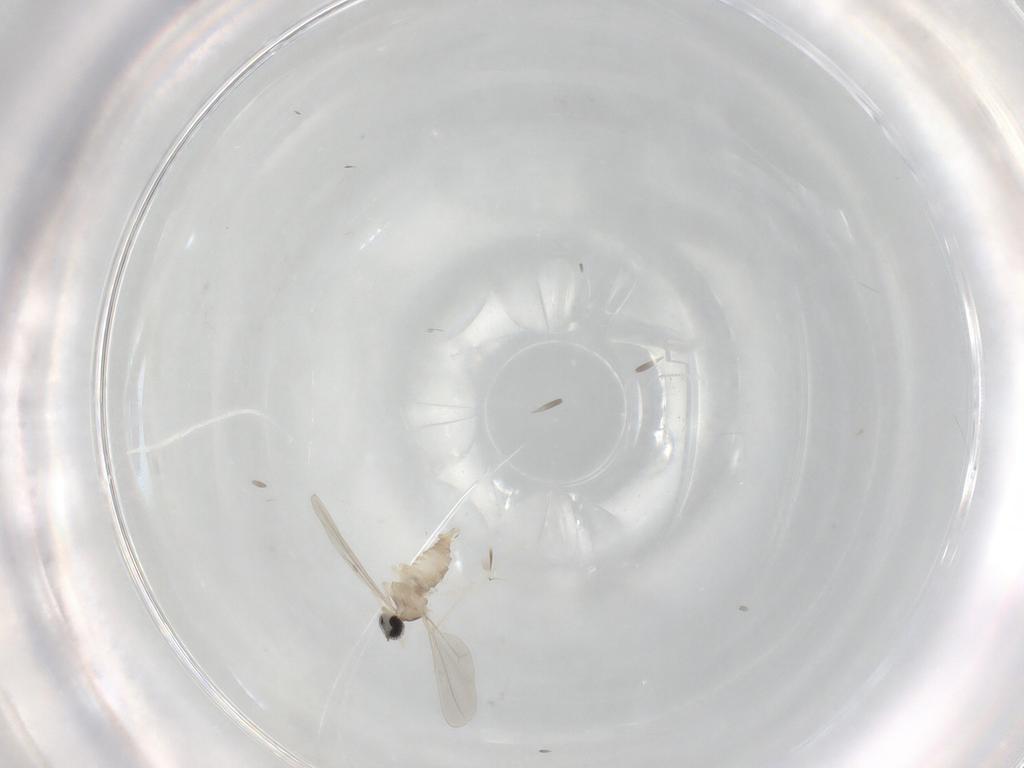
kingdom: Animalia
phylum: Arthropoda
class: Insecta
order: Diptera
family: Cecidomyiidae
